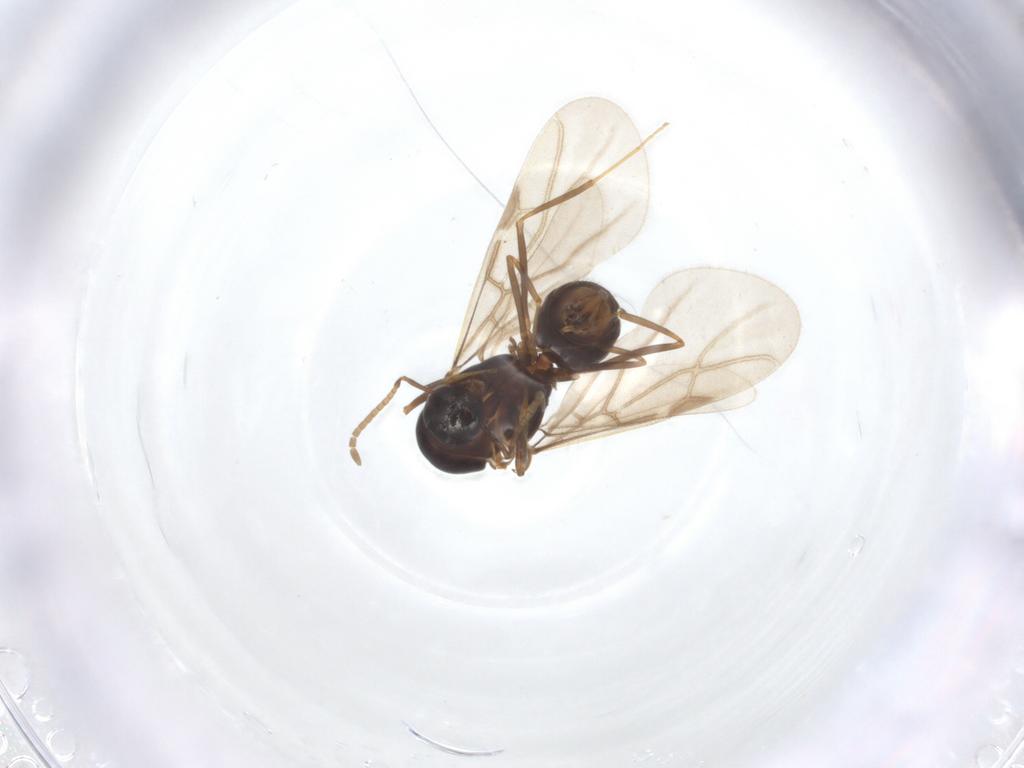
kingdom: Animalia
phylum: Arthropoda
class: Insecta
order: Hymenoptera
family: Formicidae
